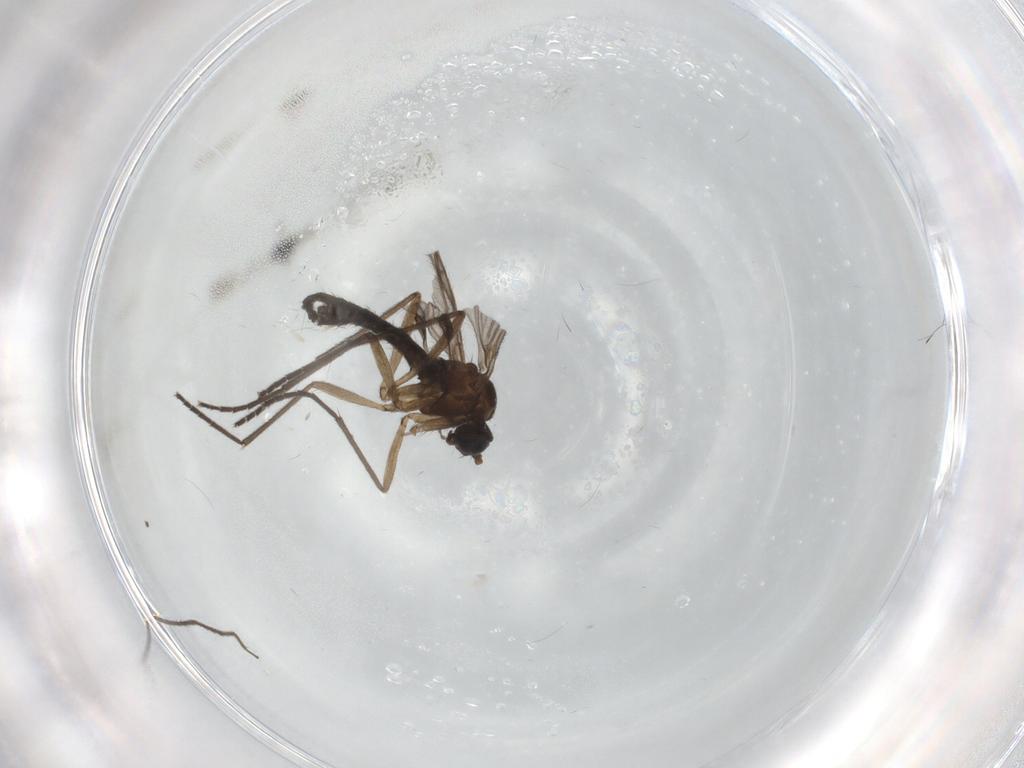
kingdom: Animalia
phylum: Arthropoda
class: Insecta
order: Diptera
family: Sciaridae
